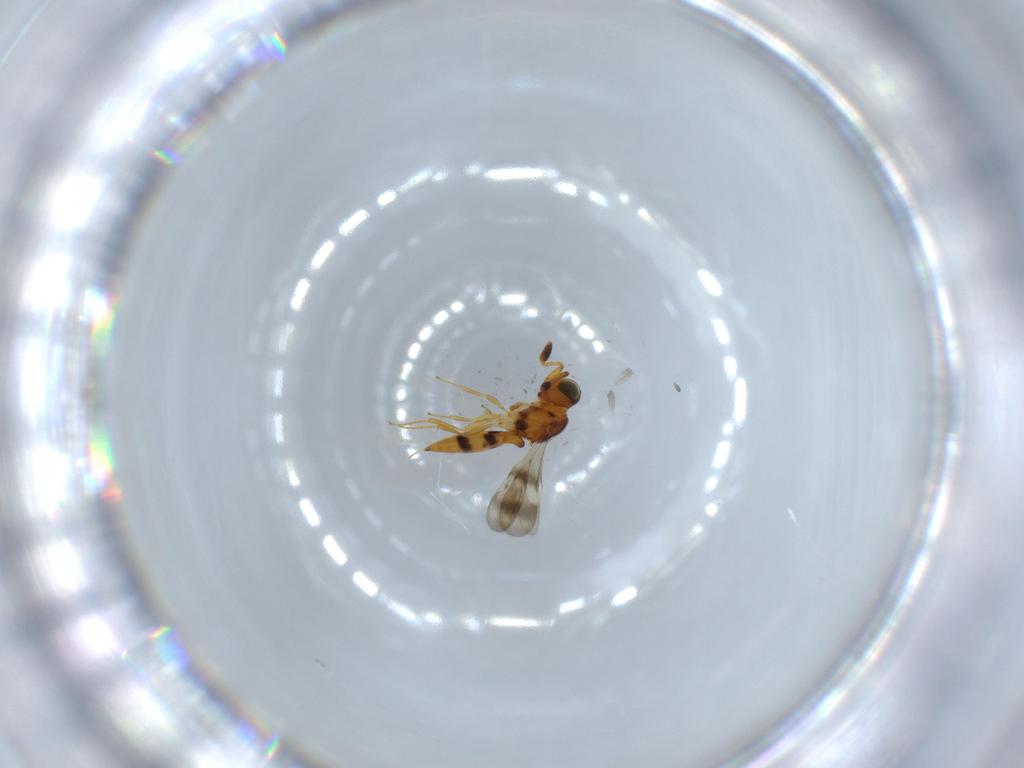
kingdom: Animalia
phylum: Arthropoda
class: Insecta
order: Hymenoptera
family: Scelionidae
